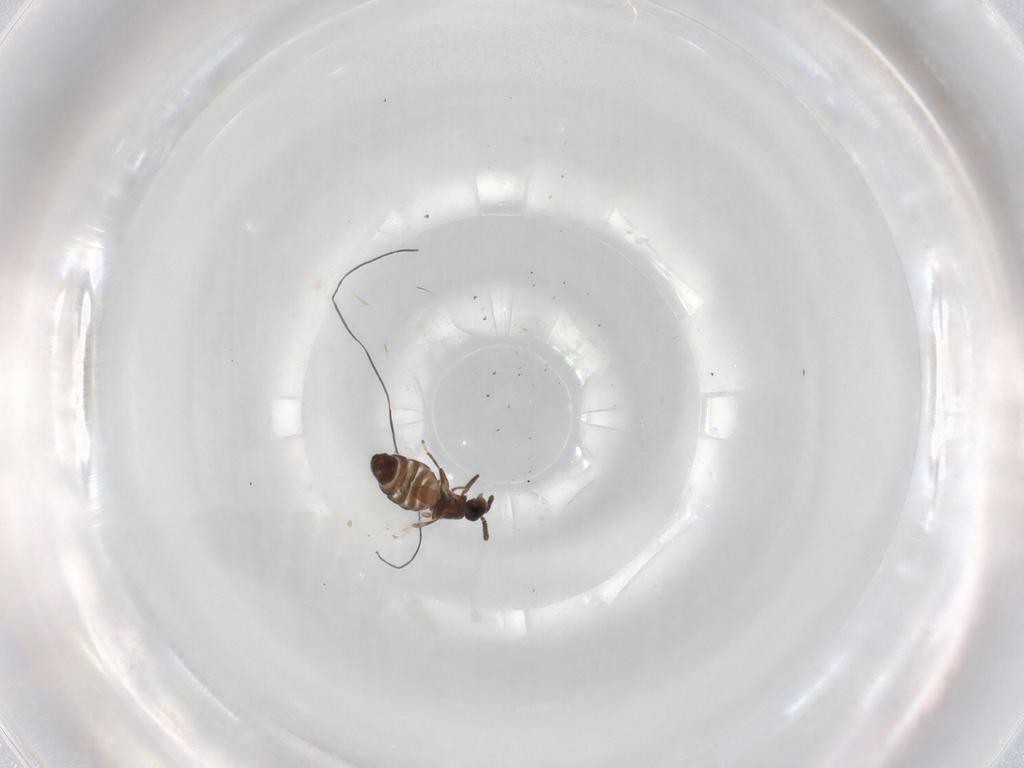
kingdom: Animalia
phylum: Arthropoda
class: Insecta
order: Diptera
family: Scatopsidae
